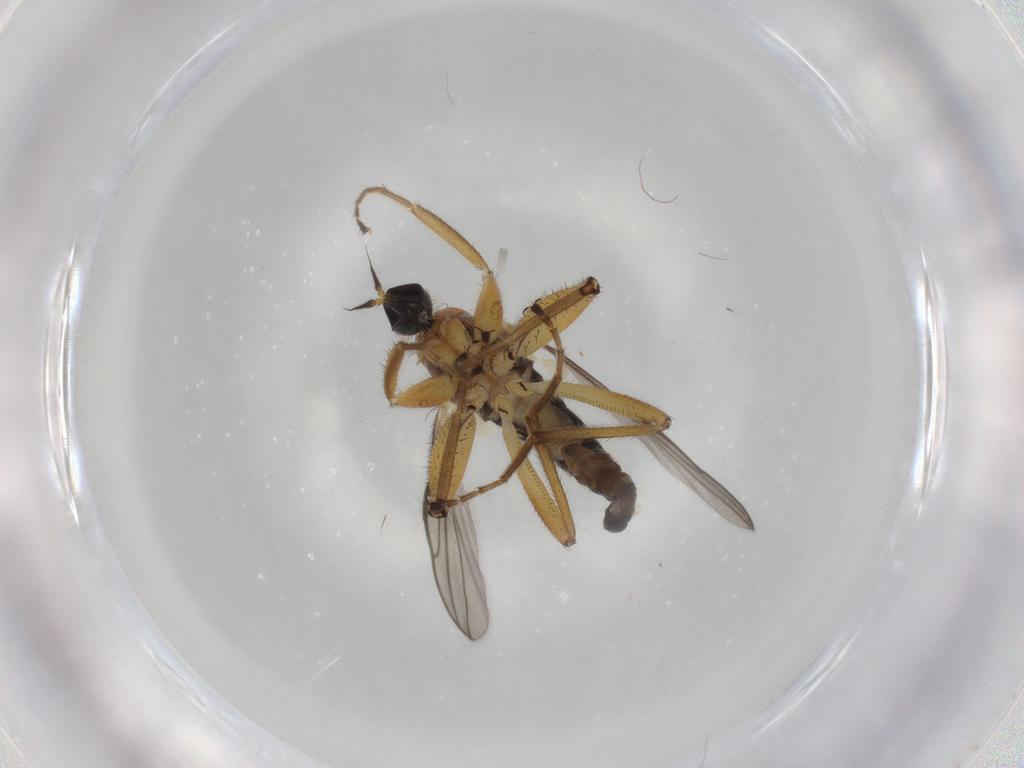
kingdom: Animalia
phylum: Arthropoda
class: Insecta
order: Diptera
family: Hybotidae
